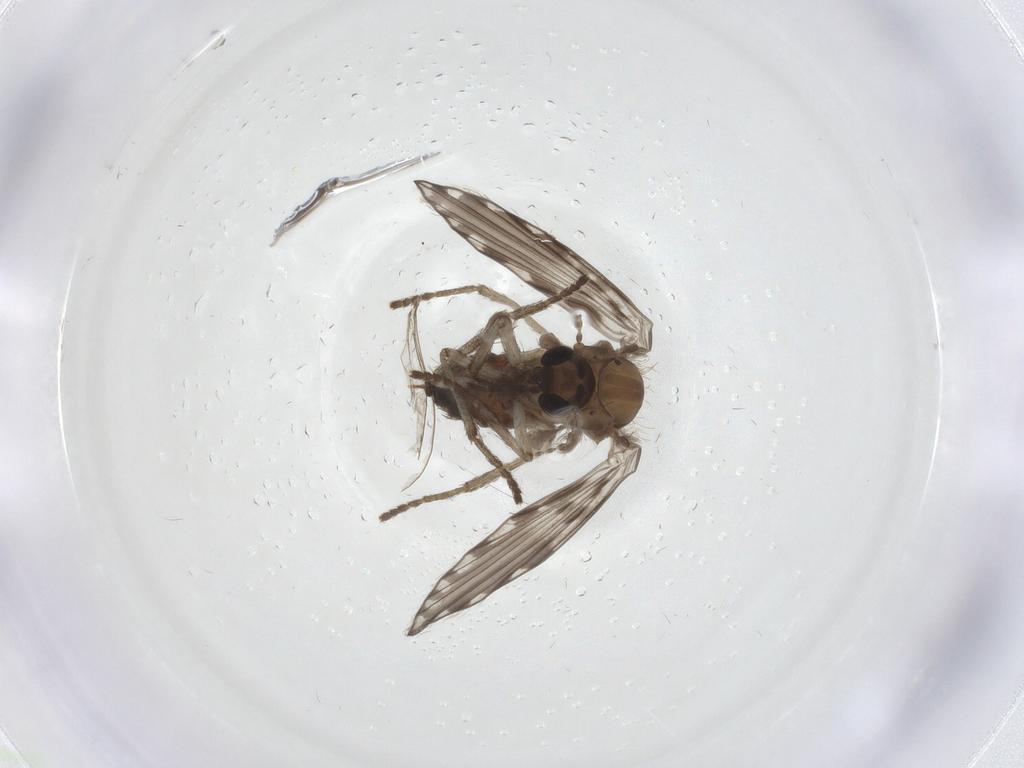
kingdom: Animalia
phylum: Arthropoda
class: Insecta
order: Diptera
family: Psychodidae
